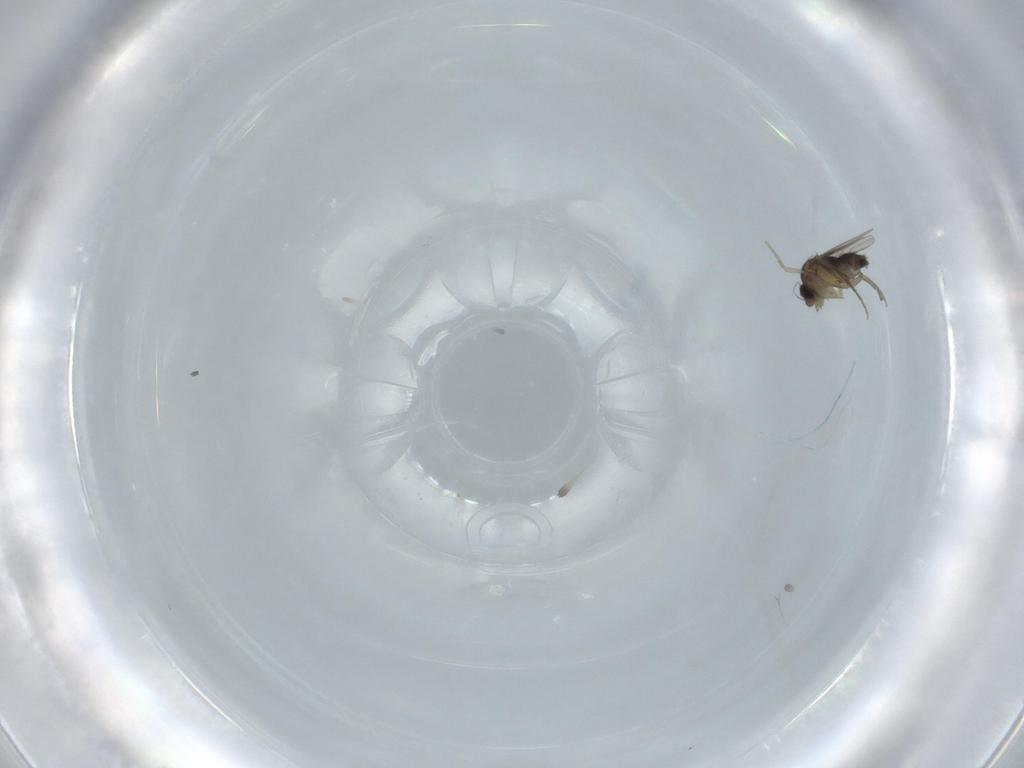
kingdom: Animalia
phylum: Arthropoda
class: Insecta
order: Diptera
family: Phoridae
